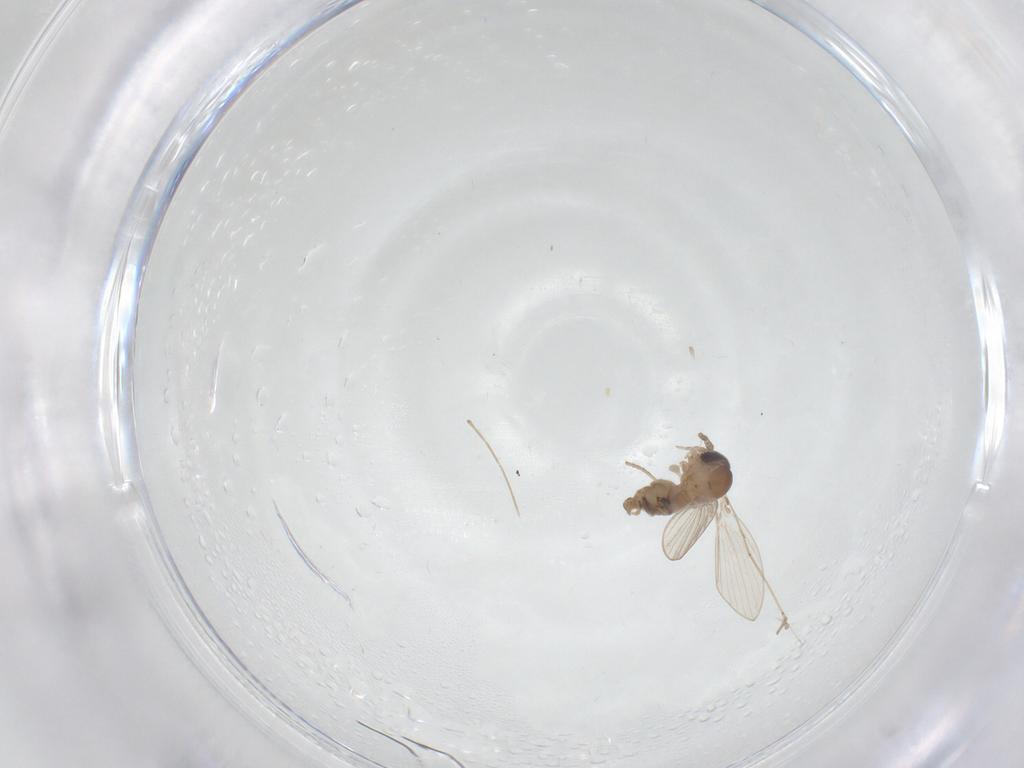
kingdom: Animalia
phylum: Arthropoda
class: Insecta
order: Diptera
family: Psychodidae
